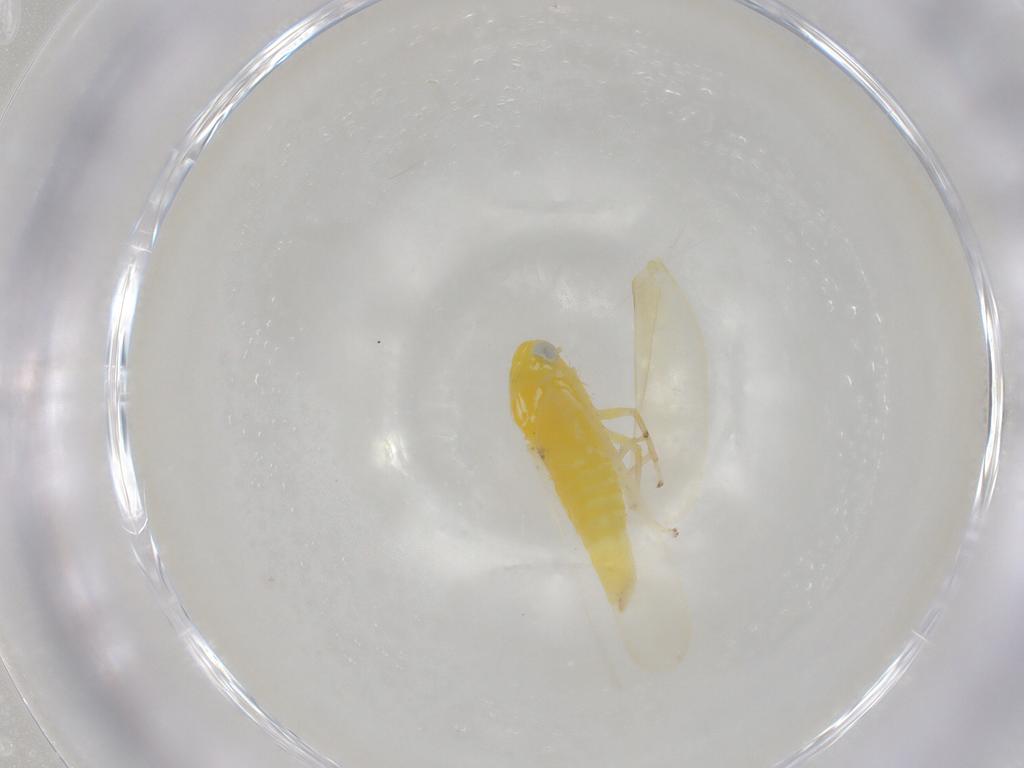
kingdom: Animalia
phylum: Arthropoda
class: Insecta
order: Hemiptera
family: Cicadellidae
